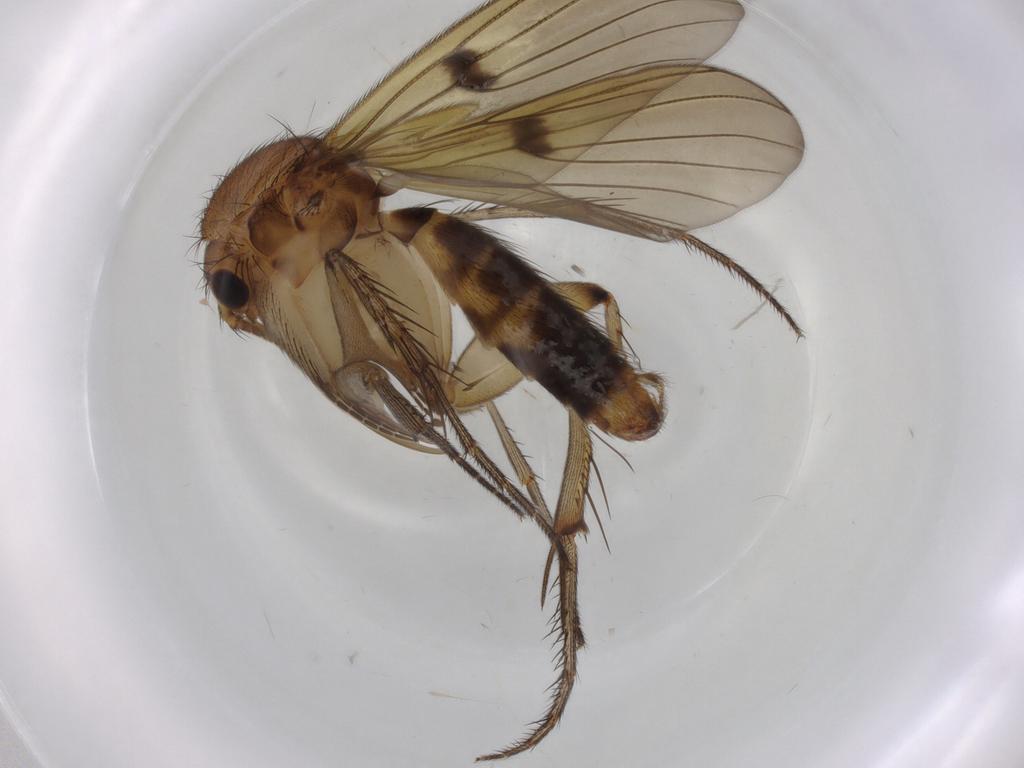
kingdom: Animalia
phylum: Arthropoda
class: Insecta
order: Diptera
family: Mycetophilidae
